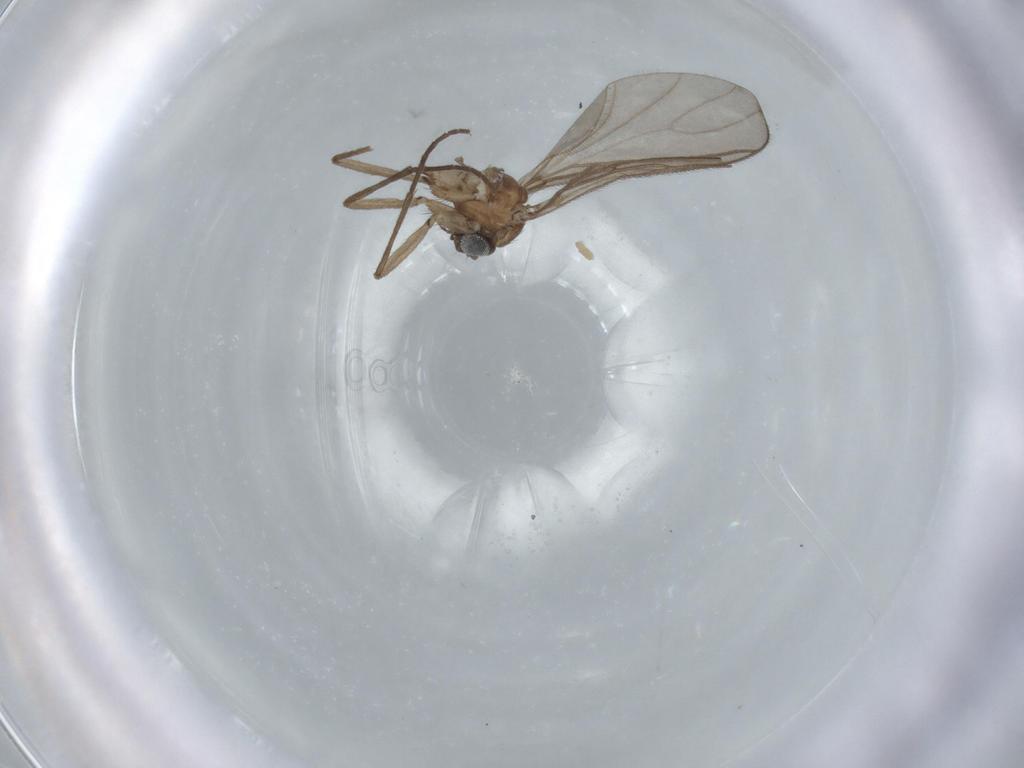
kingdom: Animalia
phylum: Arthropoda
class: Insecta
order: Diptera
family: Sciaridae
